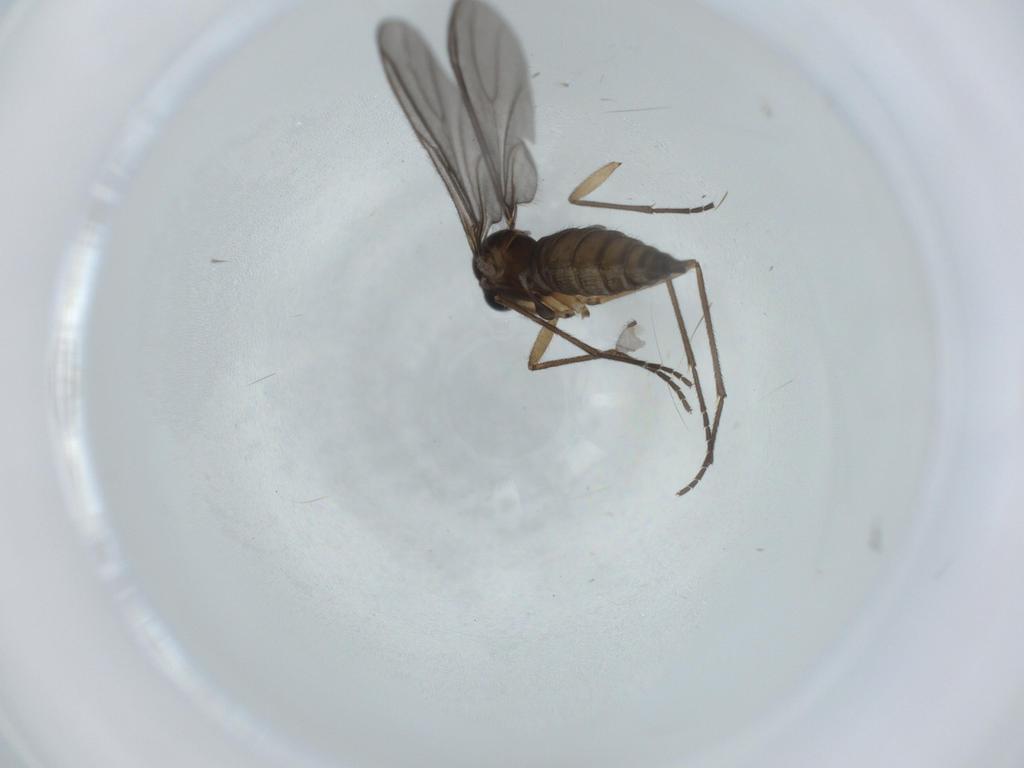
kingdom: Animalia
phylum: Arthropoda
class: Insecta
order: Diptera
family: Sciaridae
